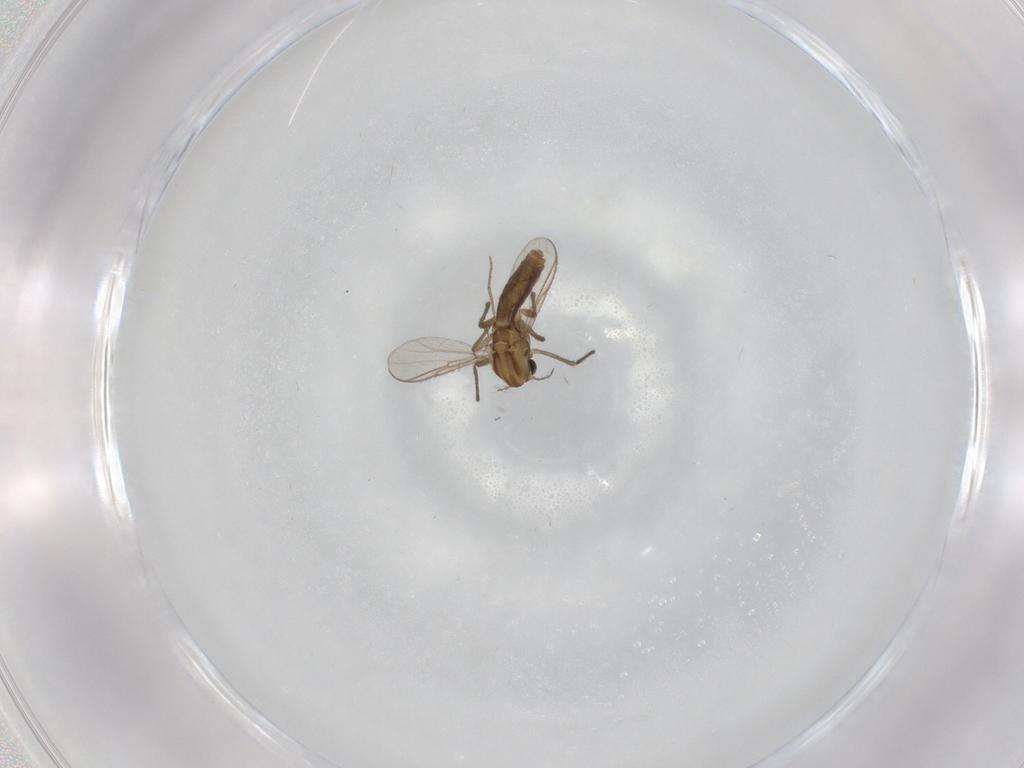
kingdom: Animalia
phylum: Arthropoda
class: Insecta
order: Diptera
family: Chironomidae
